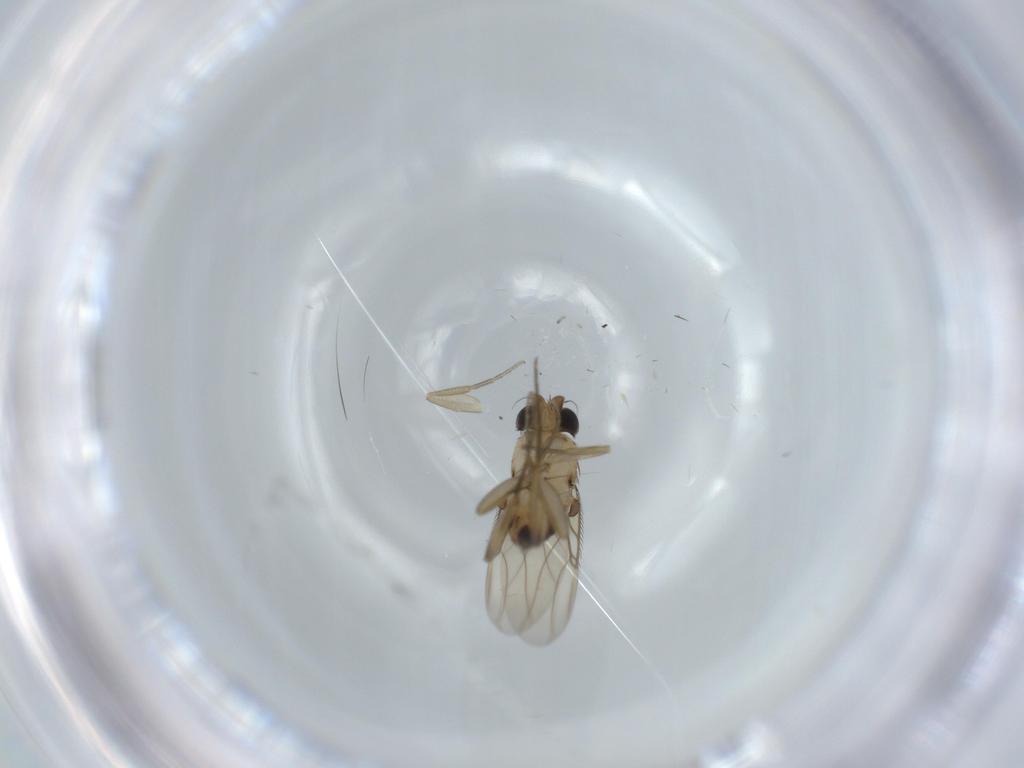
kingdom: Animalia
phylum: Arthropoda
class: Insecta
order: Diptera
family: Phoridae
